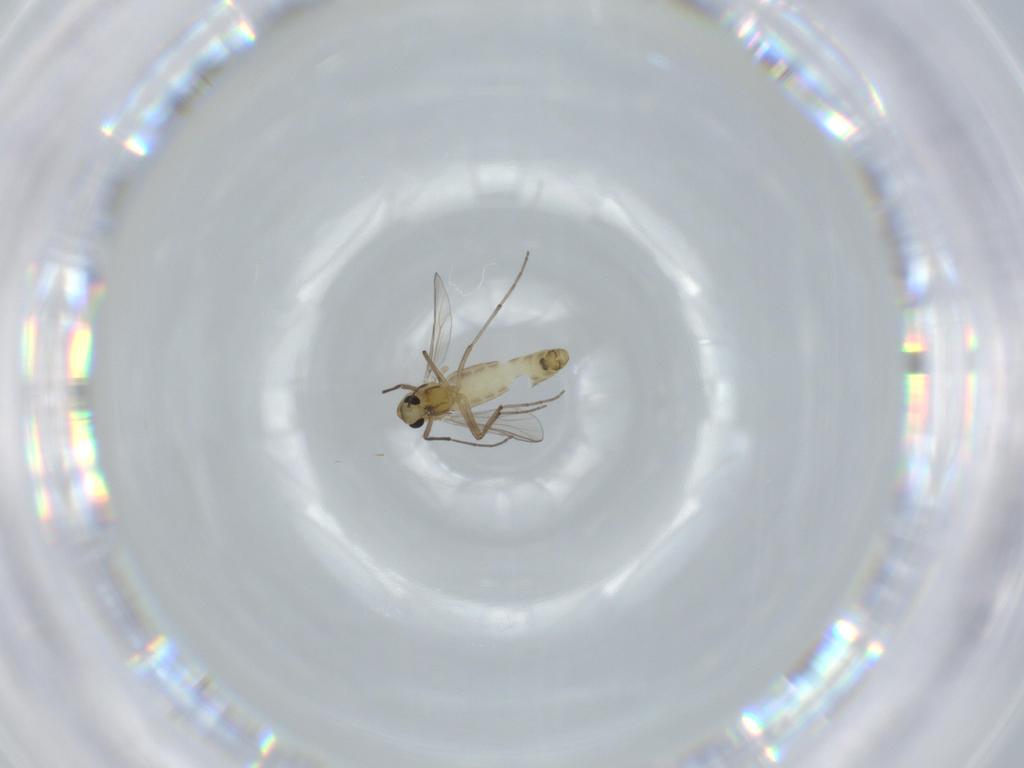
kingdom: Animalia
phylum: Arthropoda
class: Insecta
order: Diptera
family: Chironomidae
